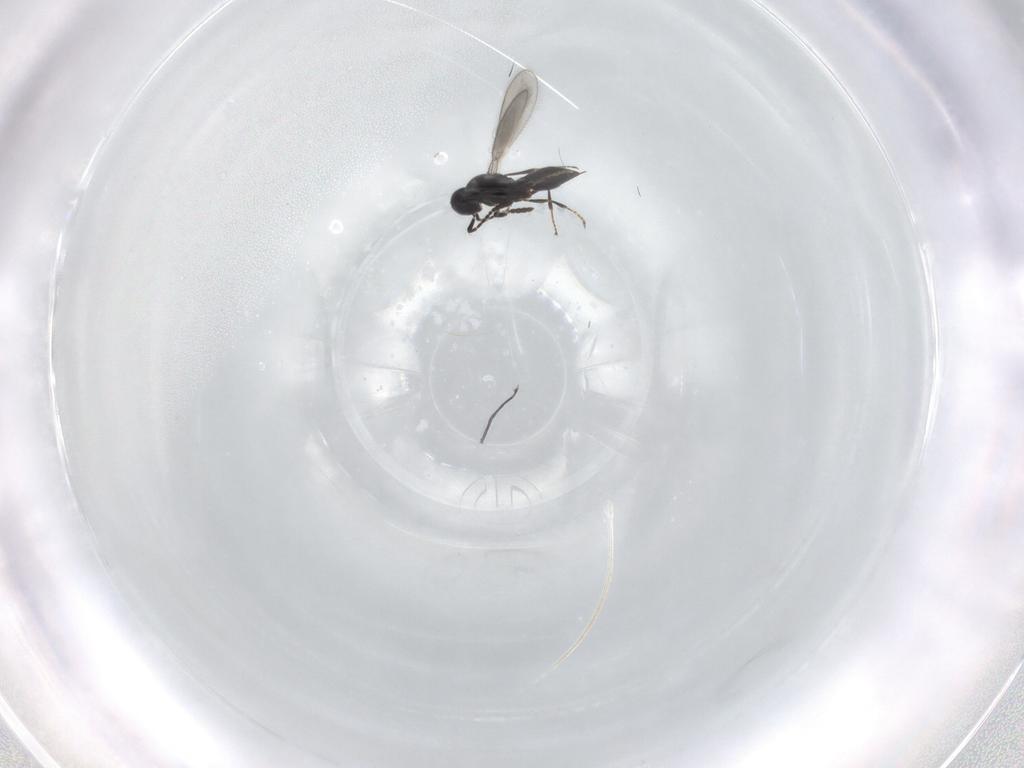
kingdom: Animalia
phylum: Arthropoda
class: Insecta
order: Hymenoptera
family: Scelionidae
